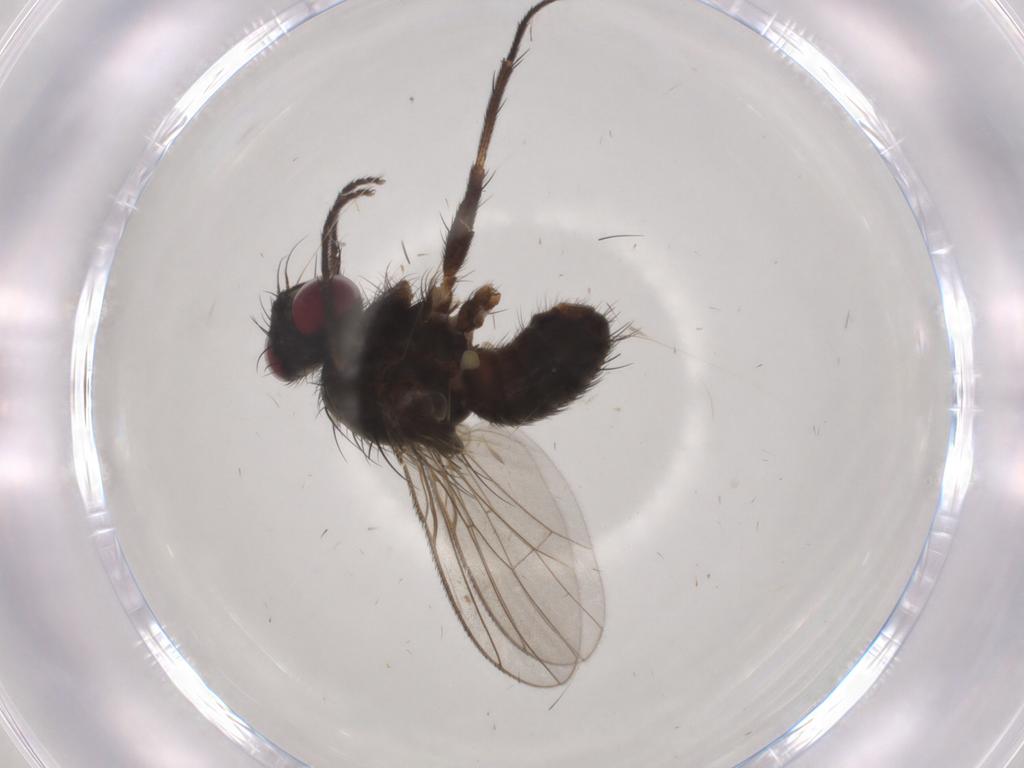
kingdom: Animalia
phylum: Arthropoda
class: Insecta
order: Diptera
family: Muscidae
